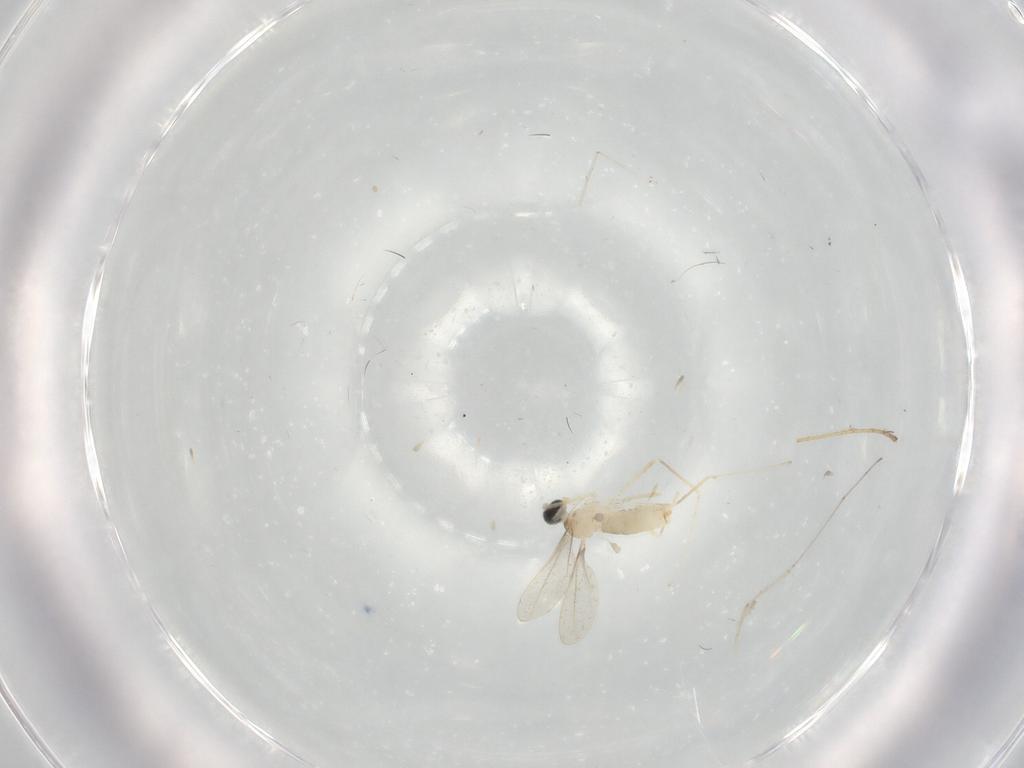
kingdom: Animalia
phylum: Arthropoda
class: Insecta
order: Diptera
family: Cecidomyiidae
